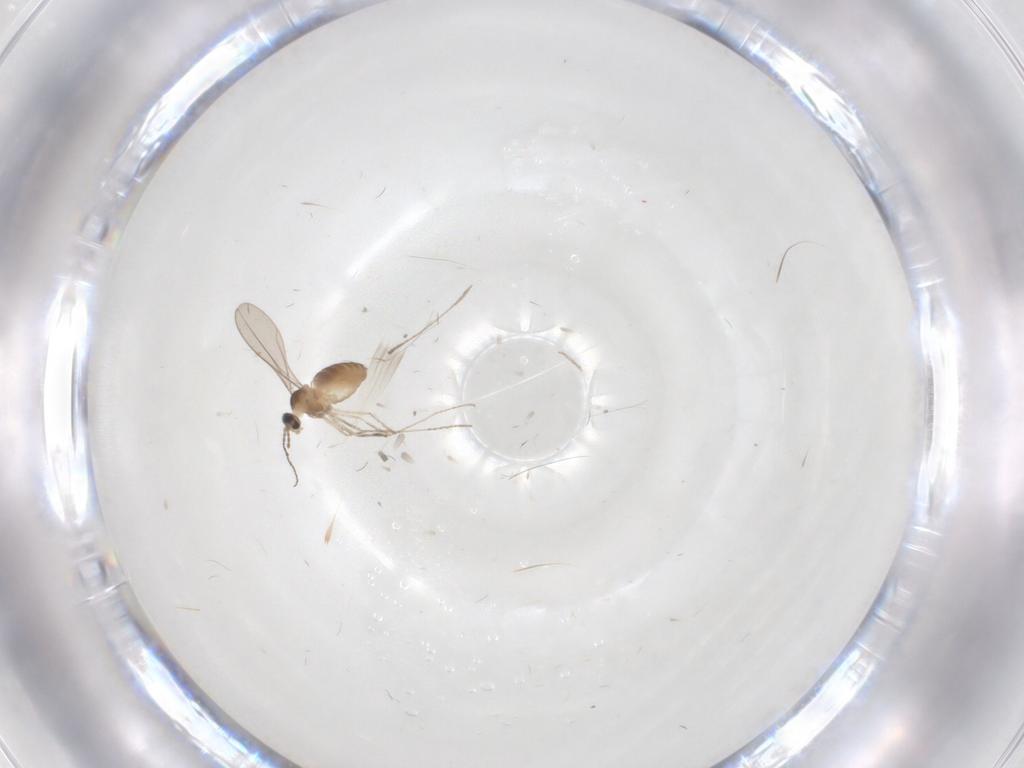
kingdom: Animalia
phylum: Arthropoda
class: Insecta
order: Diptera
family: Cecidomyiidae
